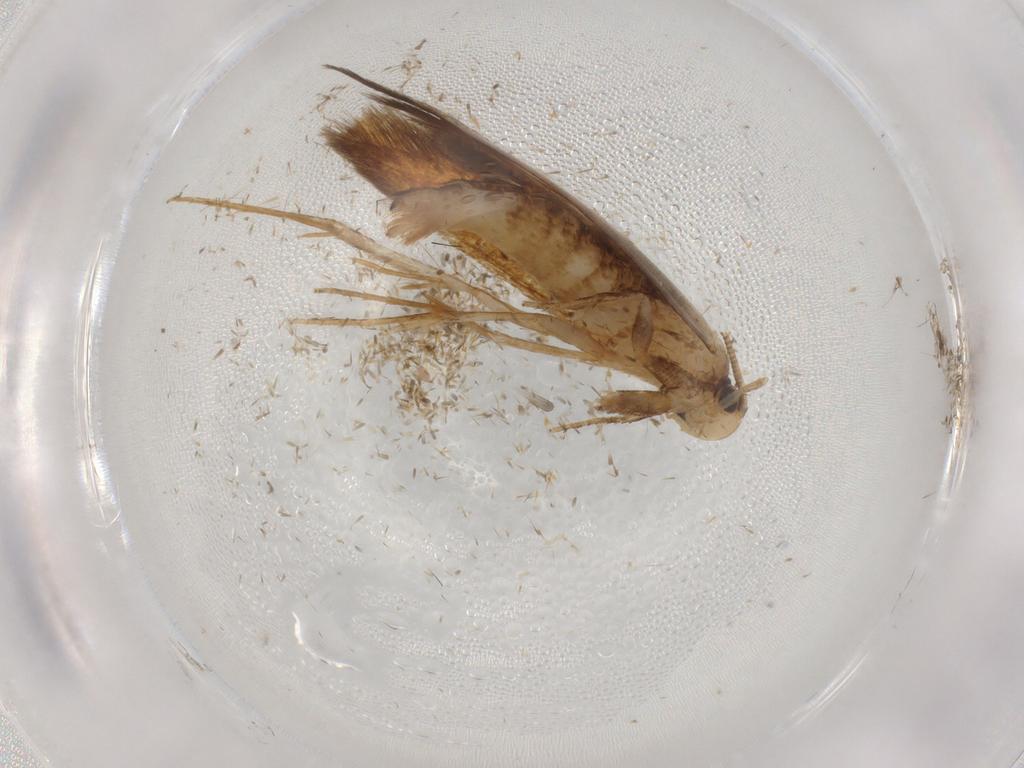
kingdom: Animalia
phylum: Arthropoda
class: Insecta
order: Lepidoptera
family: Tineidae
